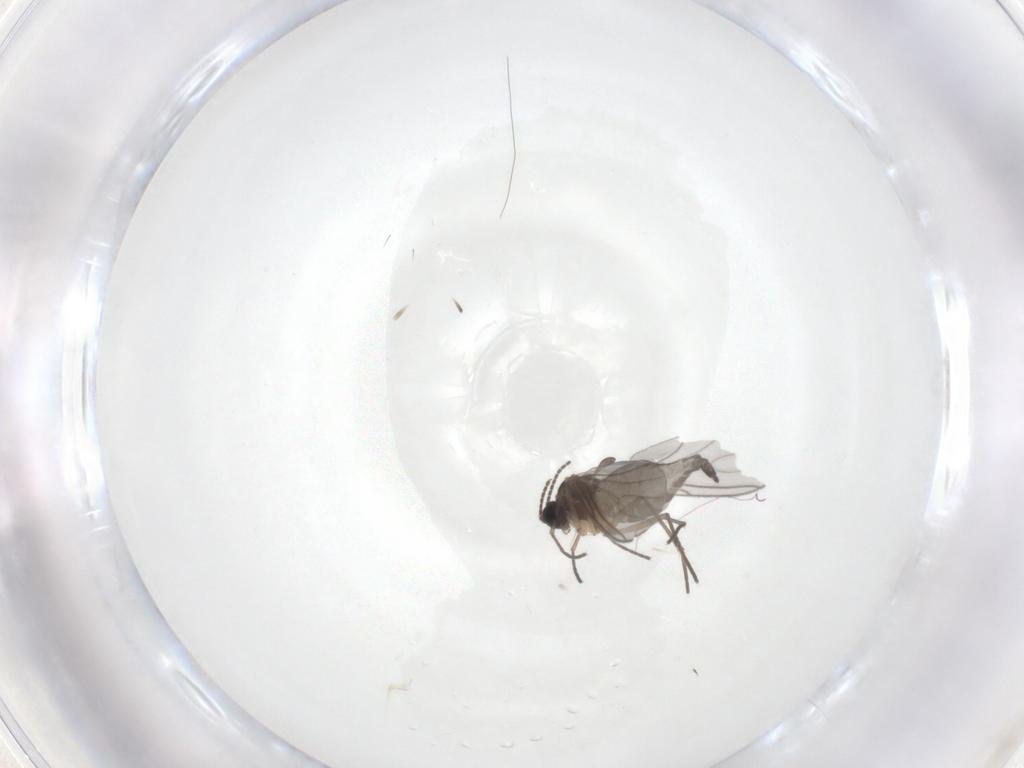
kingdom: Animalia
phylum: Arthropoda
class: Insecta
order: Diptera
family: Sciaridae
